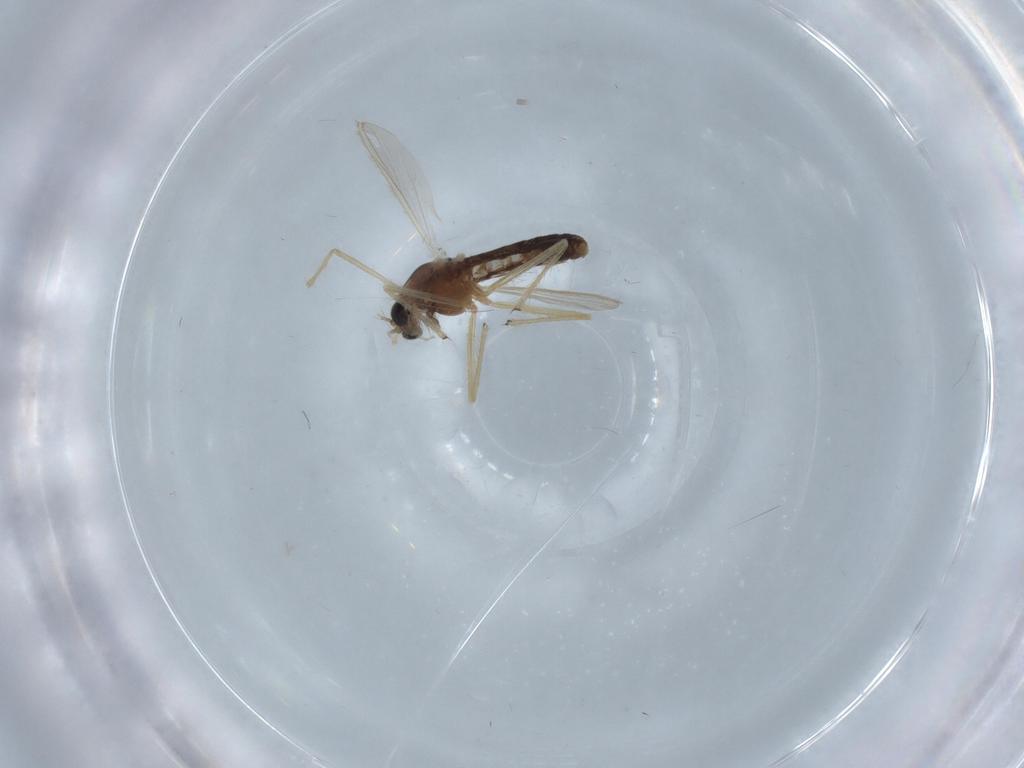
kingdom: Animalia
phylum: Arthropoda
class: Insecta
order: Diptera
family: Chironomidae
